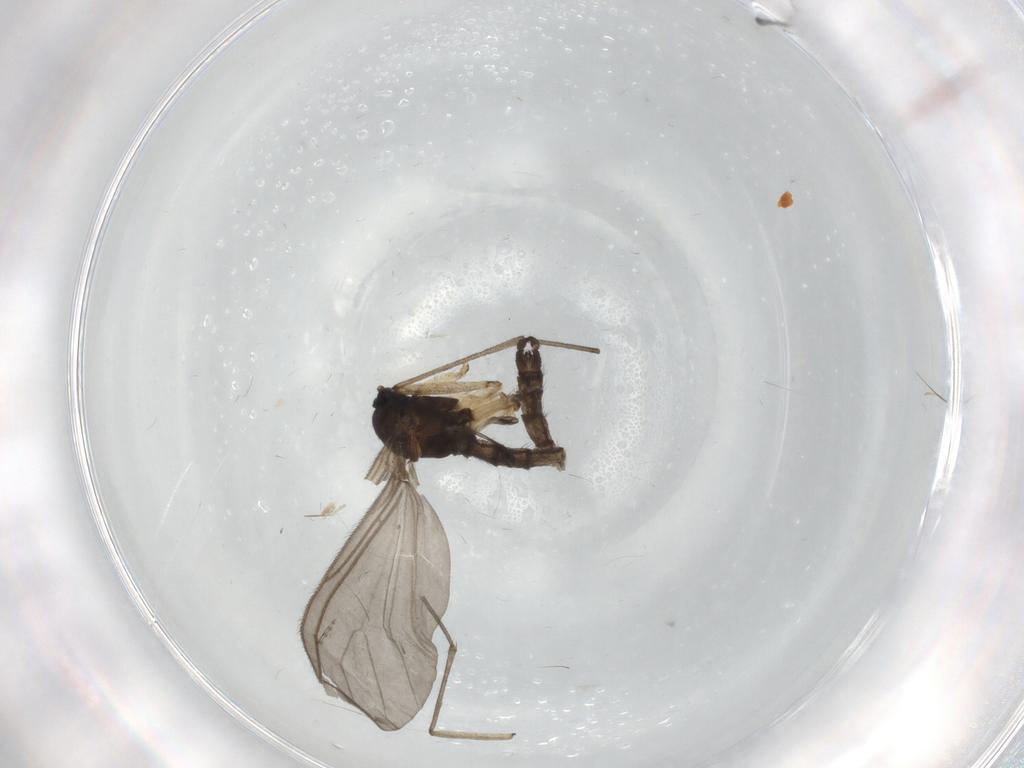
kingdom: Animalia
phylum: Arthropoda
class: Insecta
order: Diptera
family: Sciaridae
